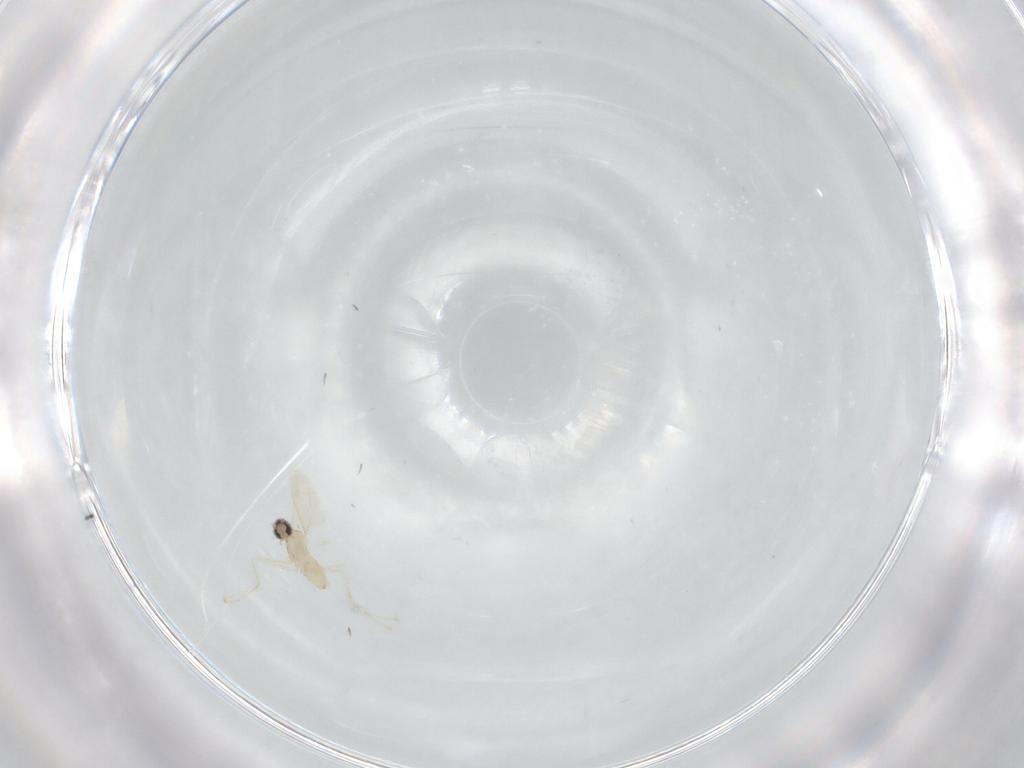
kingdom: Animalia
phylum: Arthropoda
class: Insecta
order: Diptera
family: Cecidomyiidae
